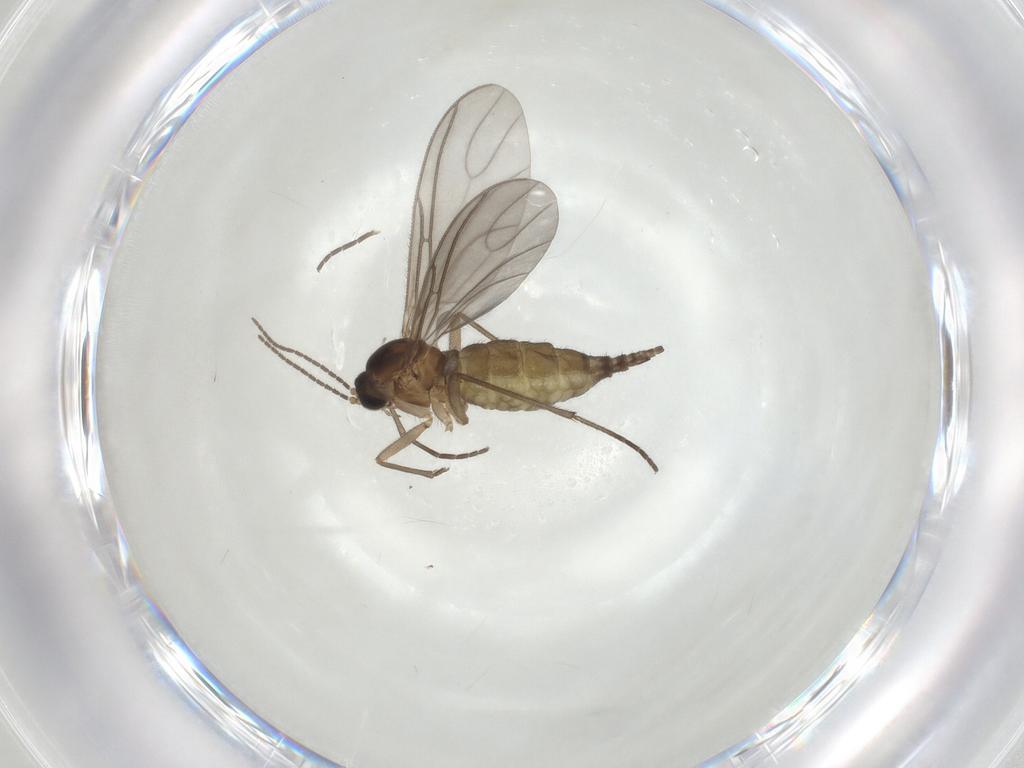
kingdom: Animalia
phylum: Arthropoda
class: Insecta
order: Diptera
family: Sciaridae
